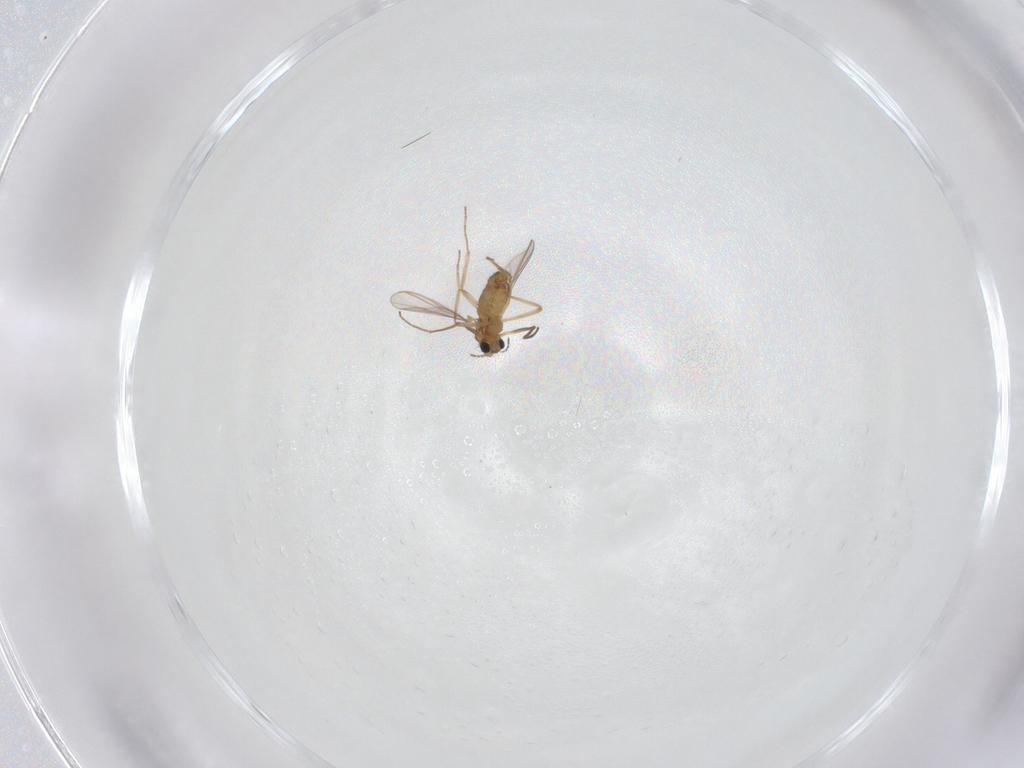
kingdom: Animalia
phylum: Arthropoda
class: Insecta
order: Diptera
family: Chironomidae
